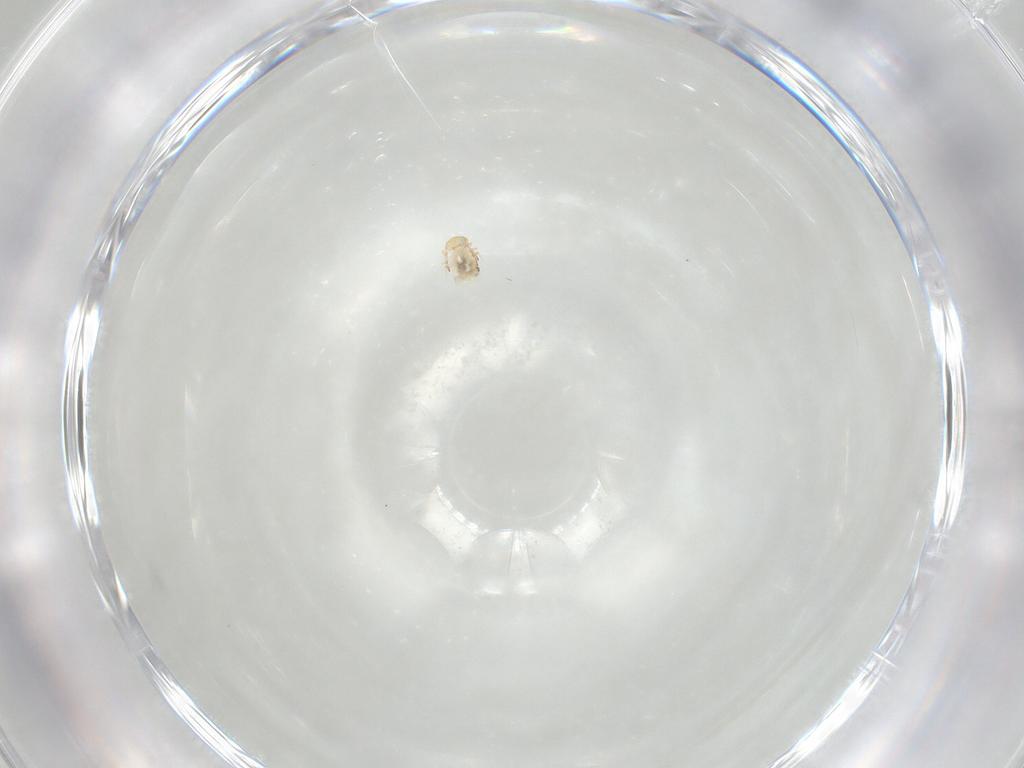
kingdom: Animalia
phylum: Arthropoda
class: Collembola
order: Symphypleona
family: Bourletiellidae
